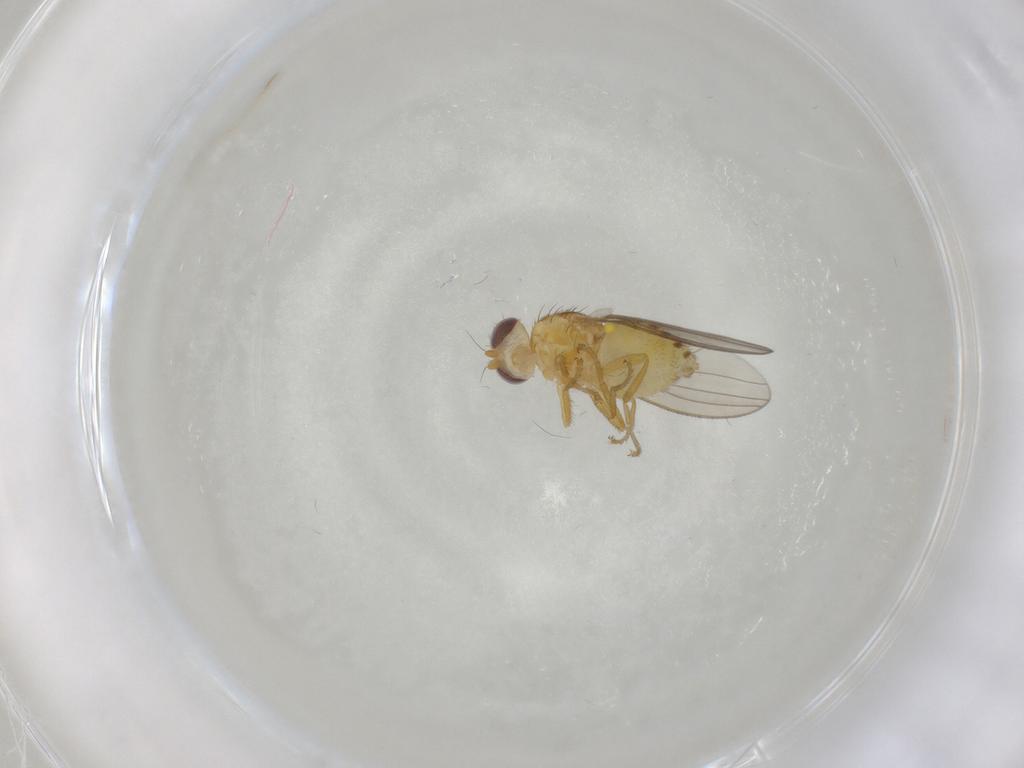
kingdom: Animalia
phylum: Arthropoda
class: Insecta
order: Diptera
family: Chyromyidae
